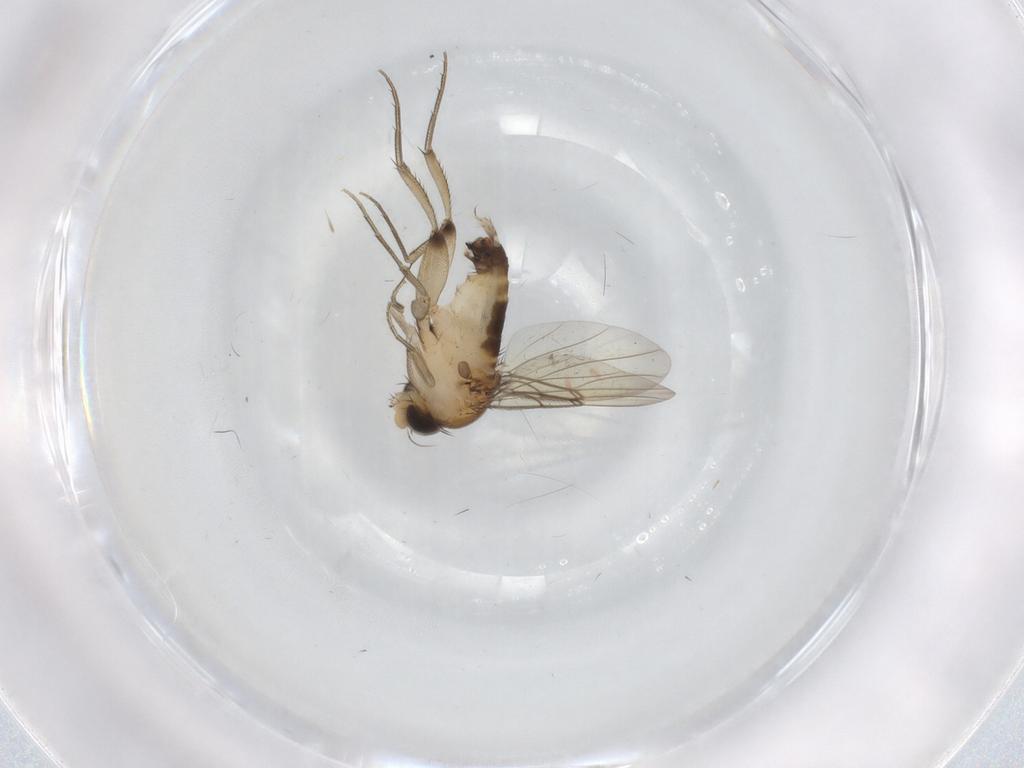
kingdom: Animalia
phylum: Arthropoda
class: Insecta
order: Diptera
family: Phoridae
